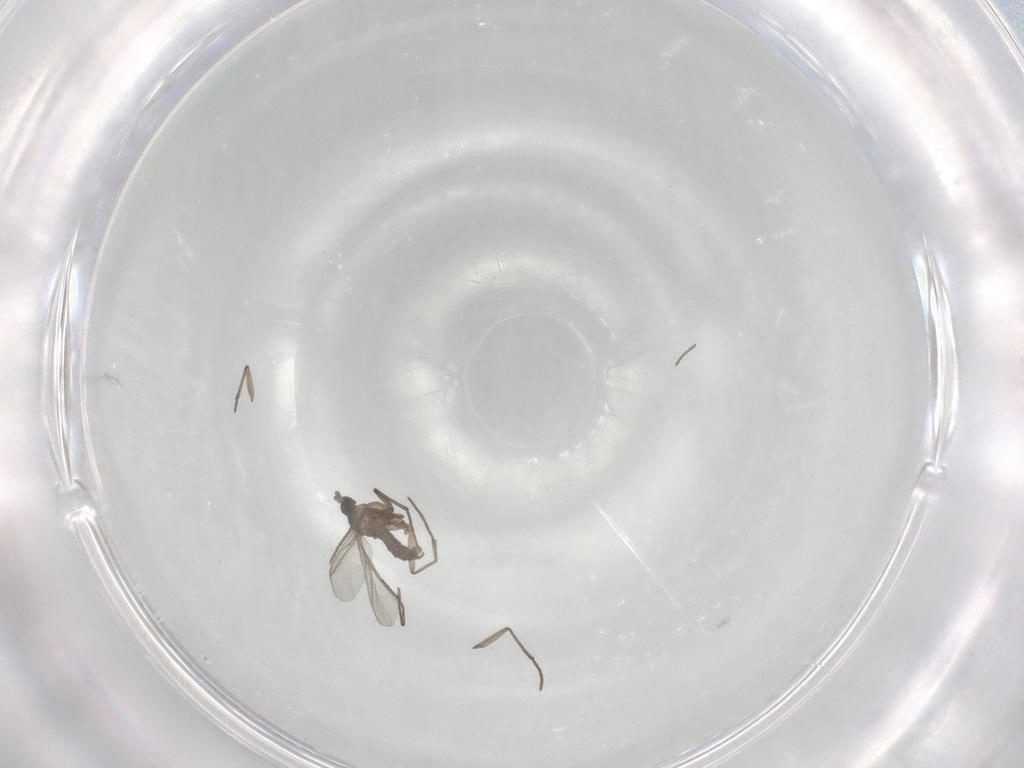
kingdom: Animalia
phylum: Arthropoda
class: Insecta
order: Diptera
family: Sciaridae
